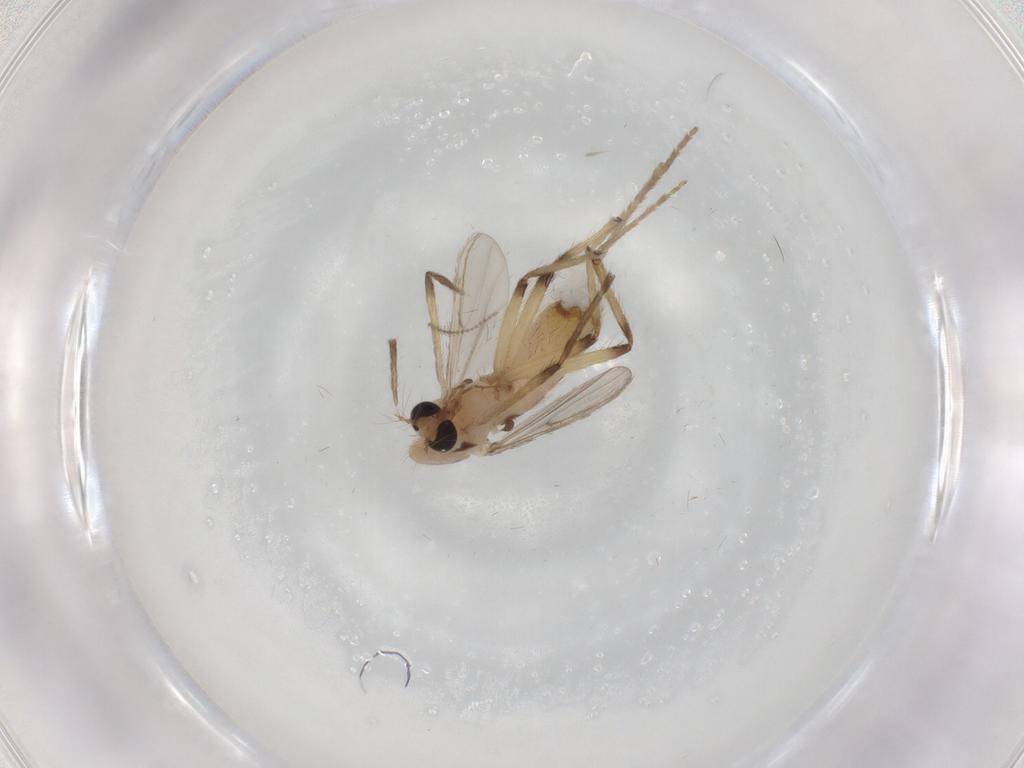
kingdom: Animalia
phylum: Arthropoda
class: Insecta
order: Diptera
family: Chironomidae
